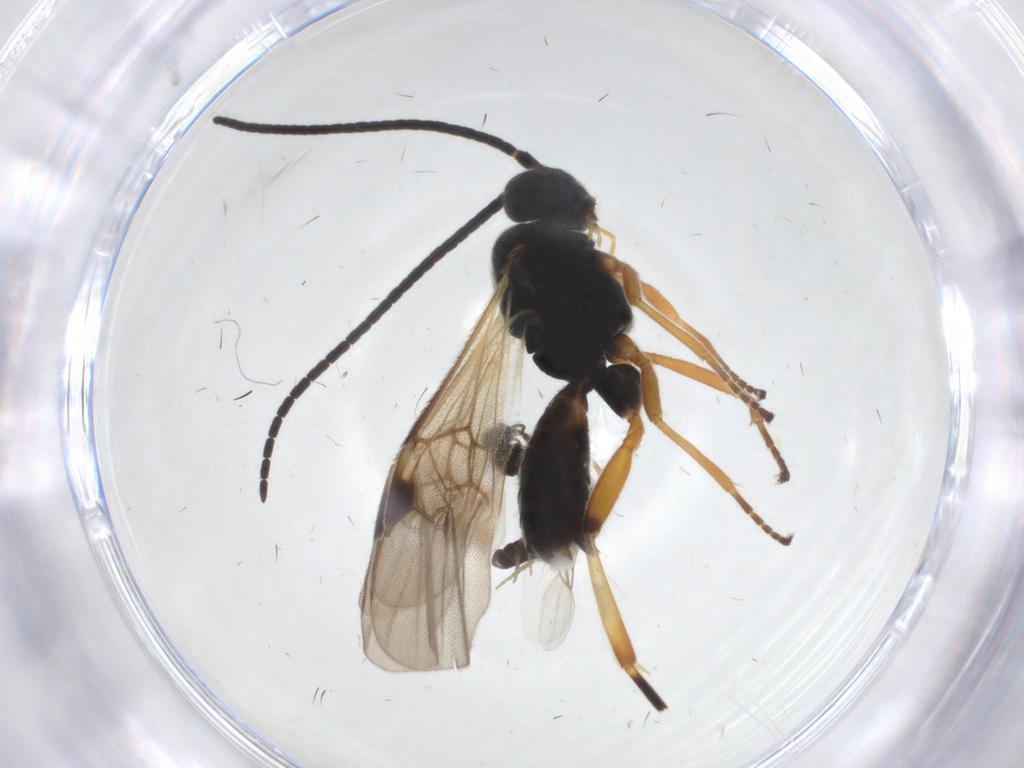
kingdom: Animalia
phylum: Arthropoda
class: Insecta
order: Hymenoptera
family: Braconidae
